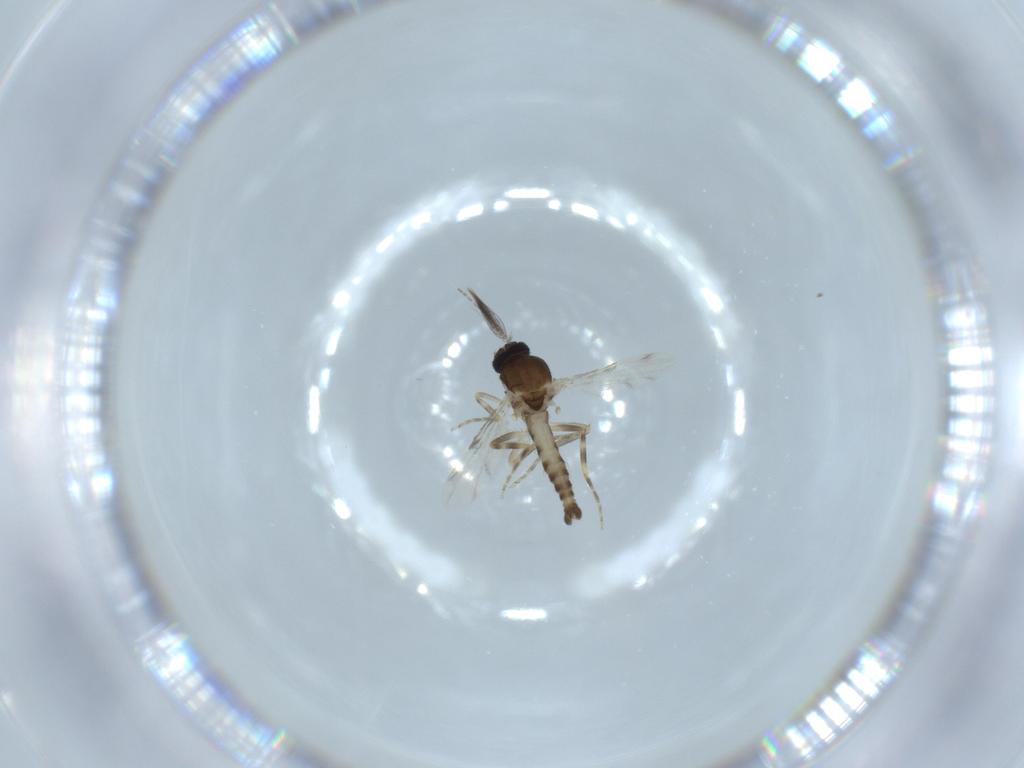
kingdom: Animalia
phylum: Arthropoda
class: Insecta
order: Diptera
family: Ceratopogonidae
